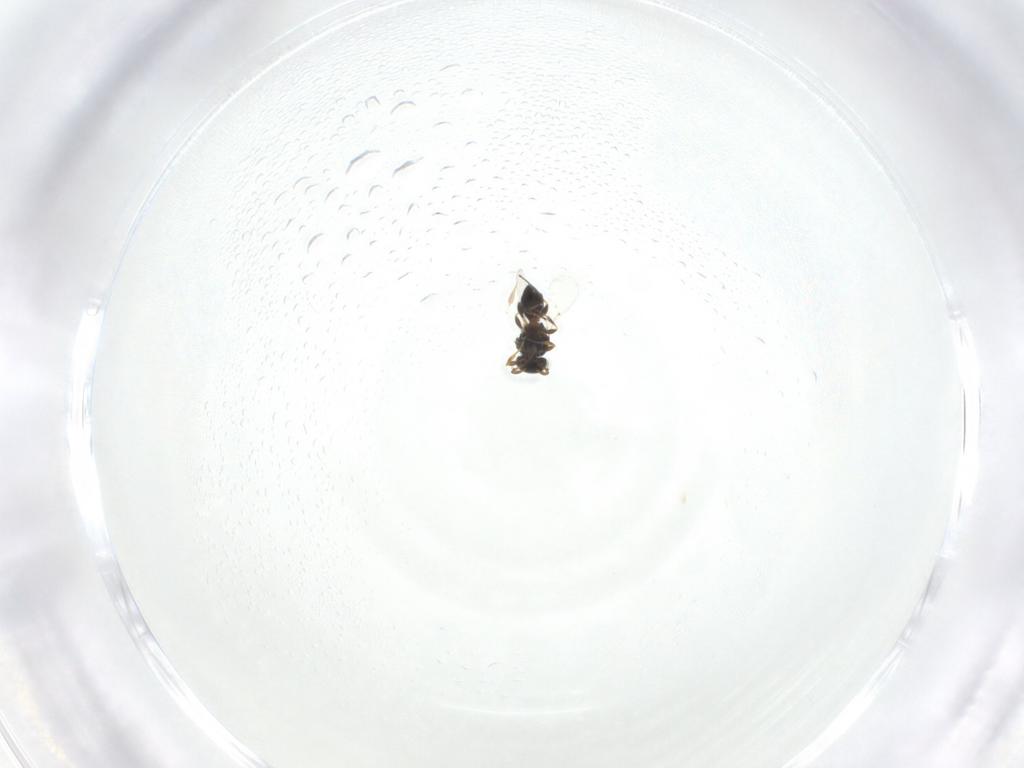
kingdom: Animalia
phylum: Arthropoda
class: Insecta
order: Hymenoptera
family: Platygastridae
